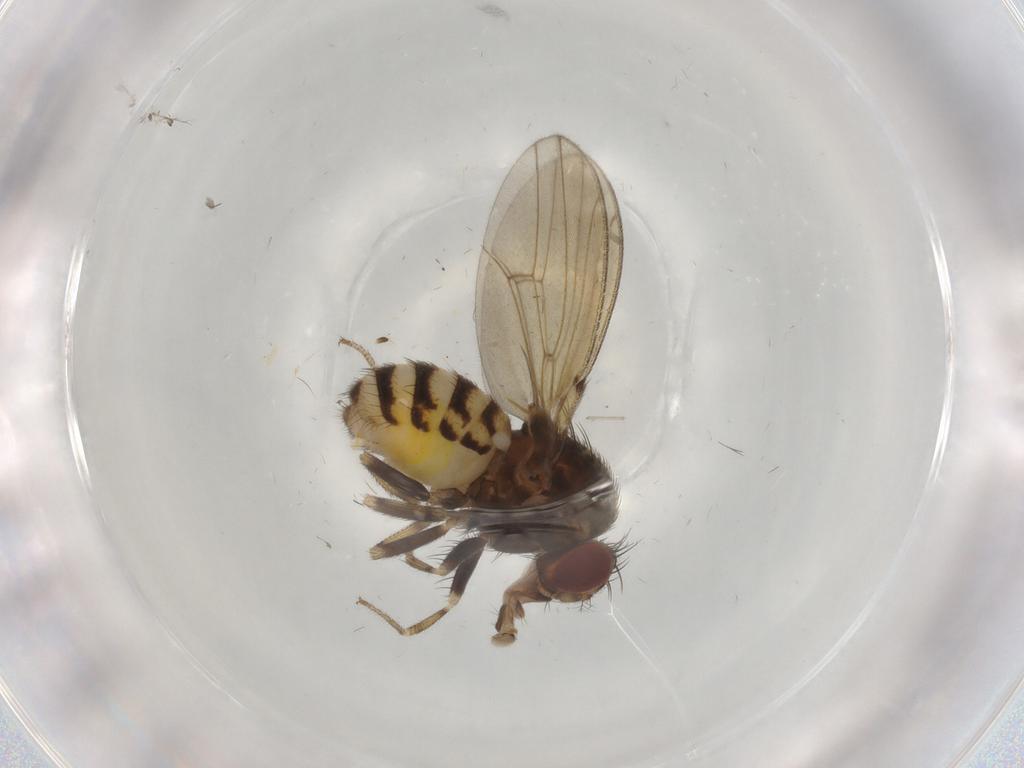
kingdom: Animalia
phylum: Arthropoda
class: Insecta
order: Diptera
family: Drosophilidae
